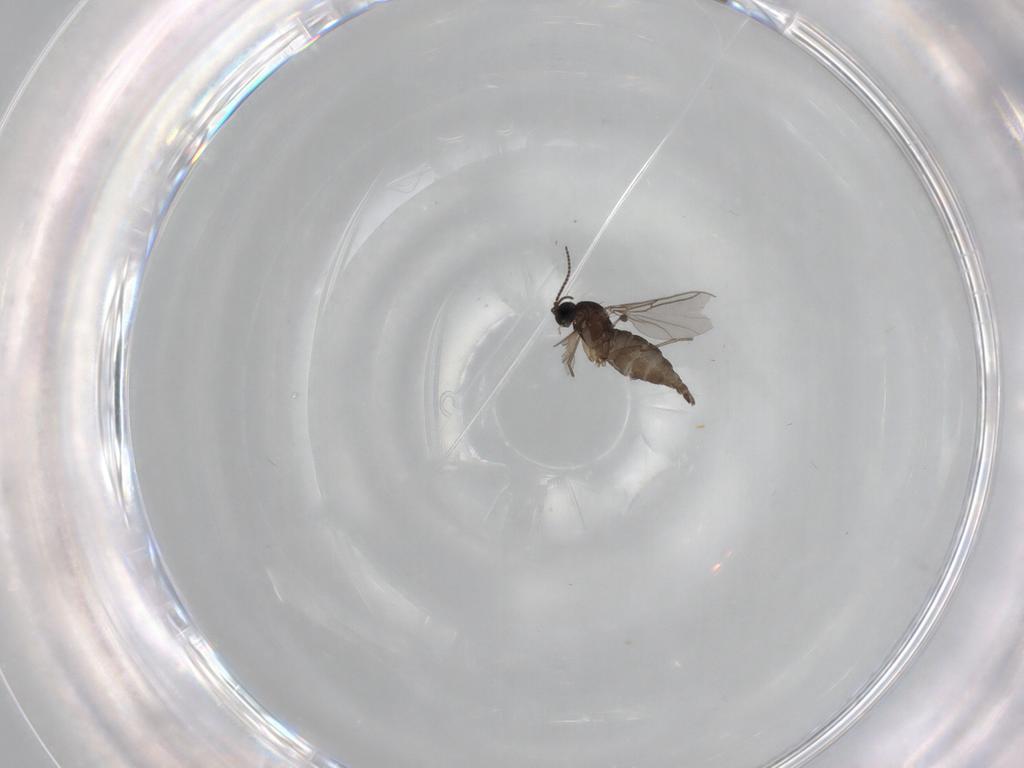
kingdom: Animalia
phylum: Arthropoda
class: Insecta
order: Diptera
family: Sciaridae
